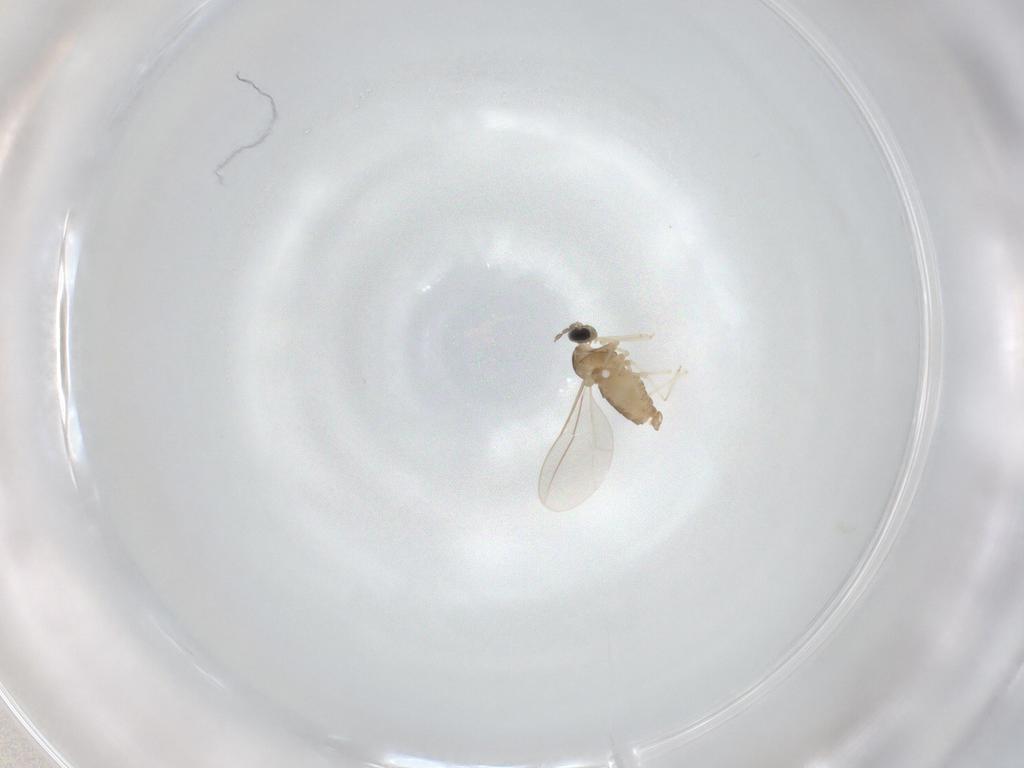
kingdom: Animalia
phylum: Arthropoda
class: Insecta
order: Diptera
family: Cecidomyiidae
